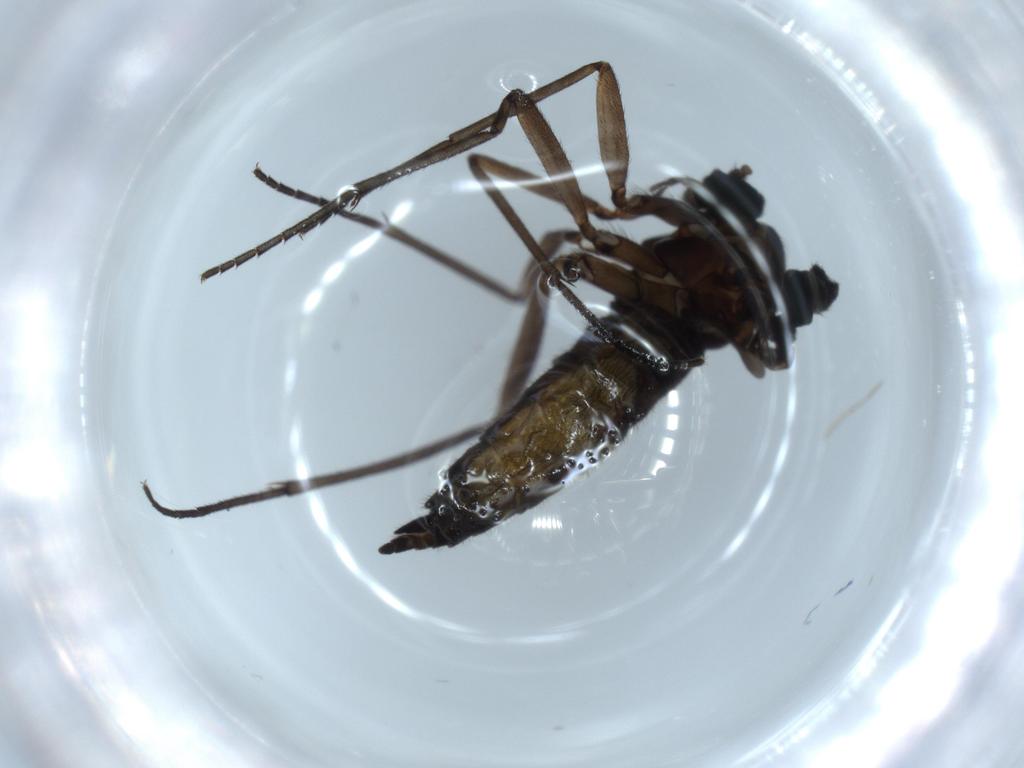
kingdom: Animalia
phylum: Arthropoda
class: Insecta
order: Diptera
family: Sciaridae
